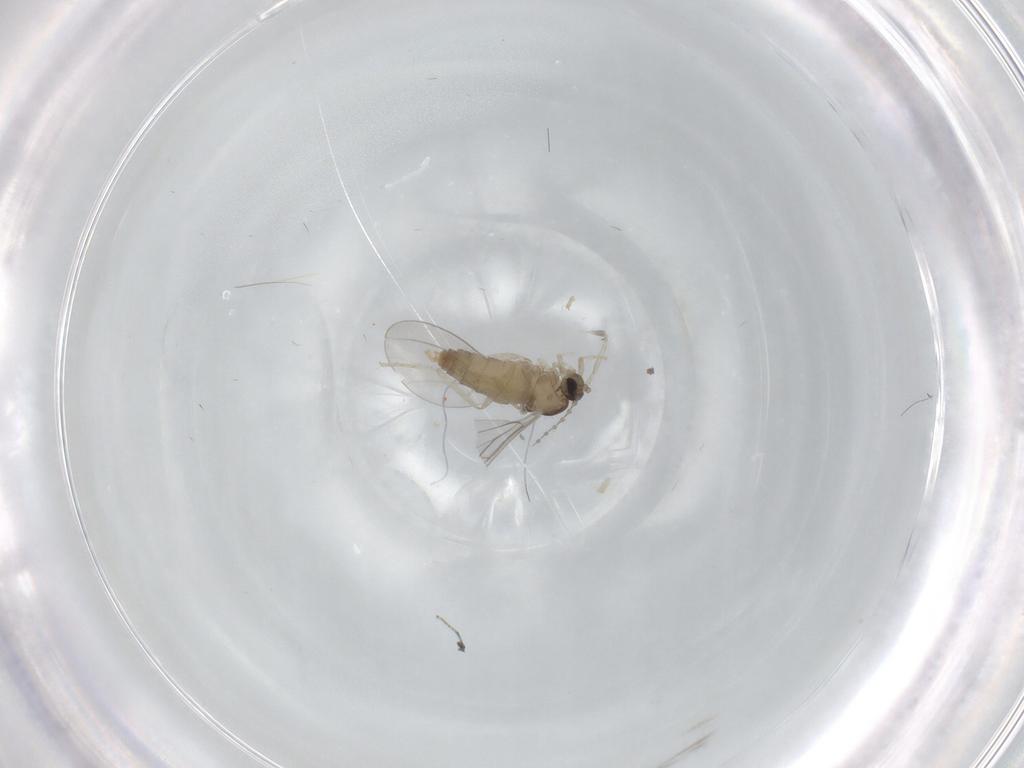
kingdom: Animalia
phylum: Arthropoda
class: Insecta
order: Diptera
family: Cecidomyiidae
